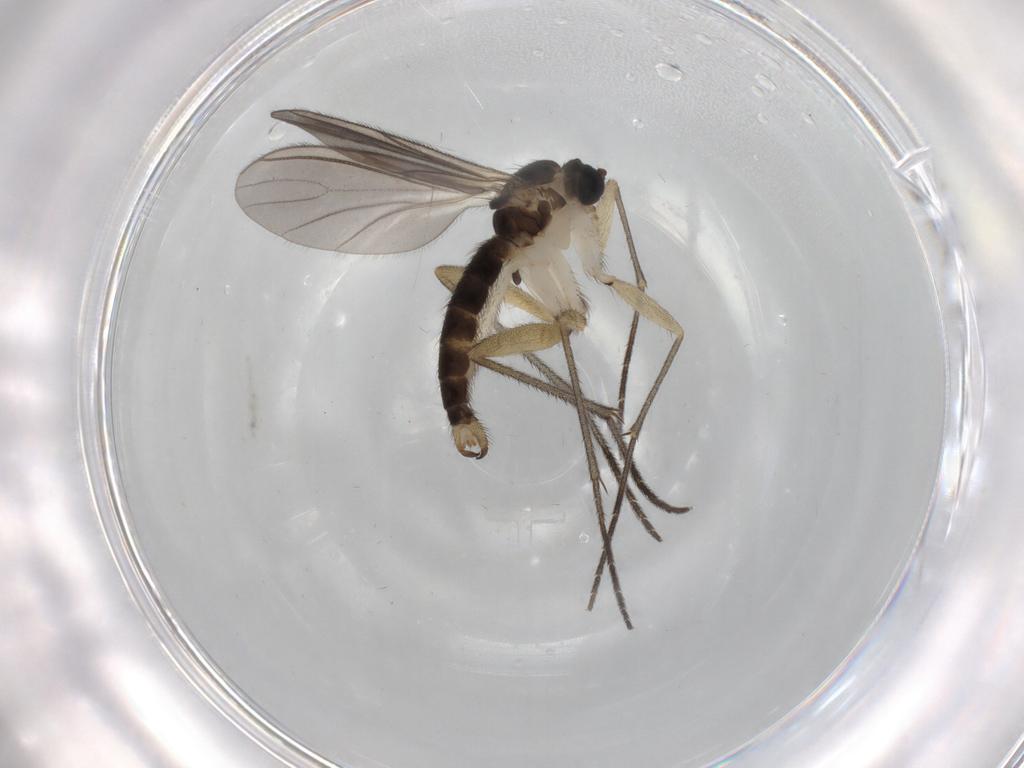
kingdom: Animalia
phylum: Arthropoda
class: Insecta
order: Diptera
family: Sciaridae
